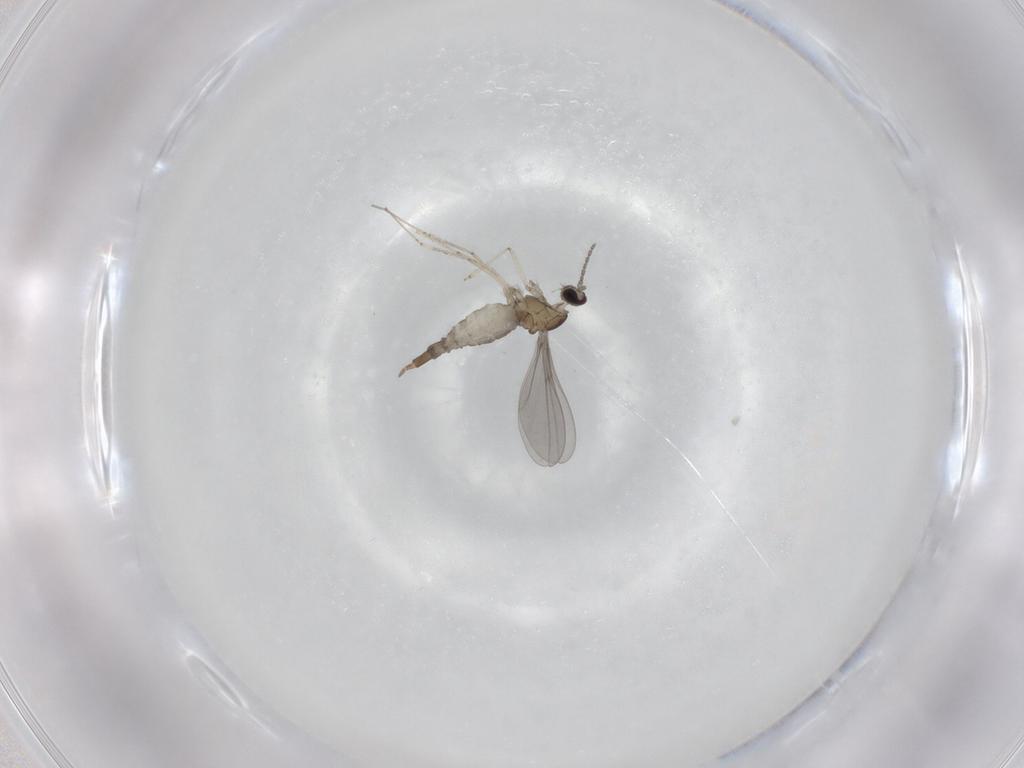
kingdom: Animalia
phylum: Arthropoda
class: Insecta
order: Diptera
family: Cecidomyiidae
